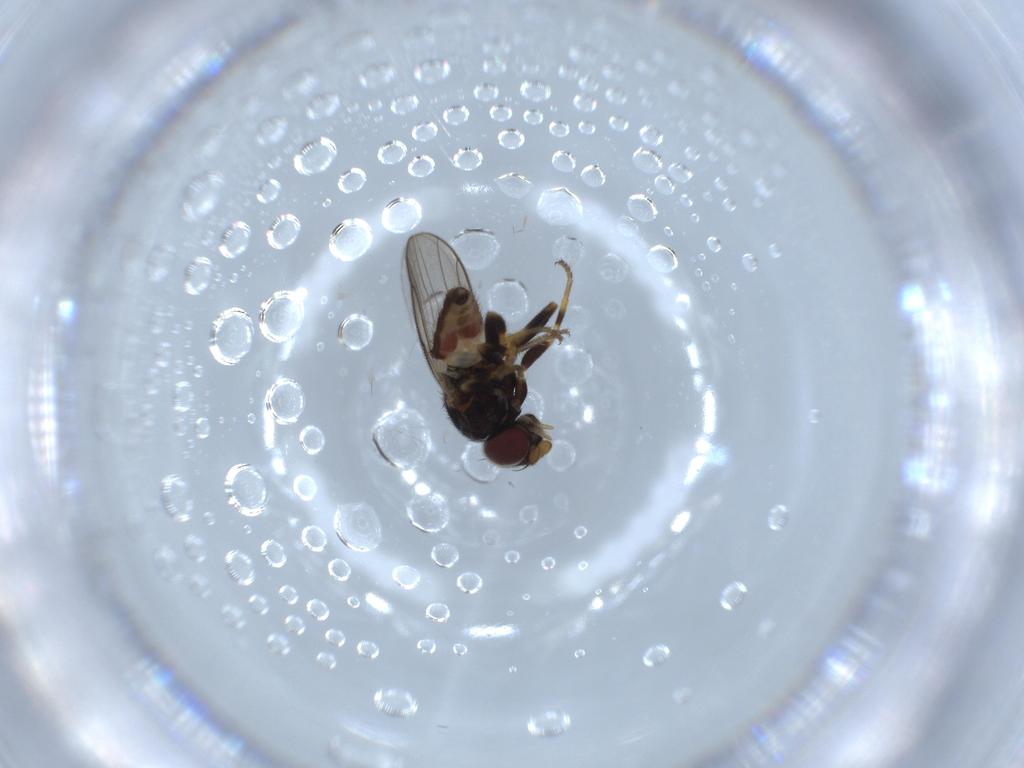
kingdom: Animalia
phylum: Arthropoda
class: Insecta
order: Diptera
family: Chloropidae
